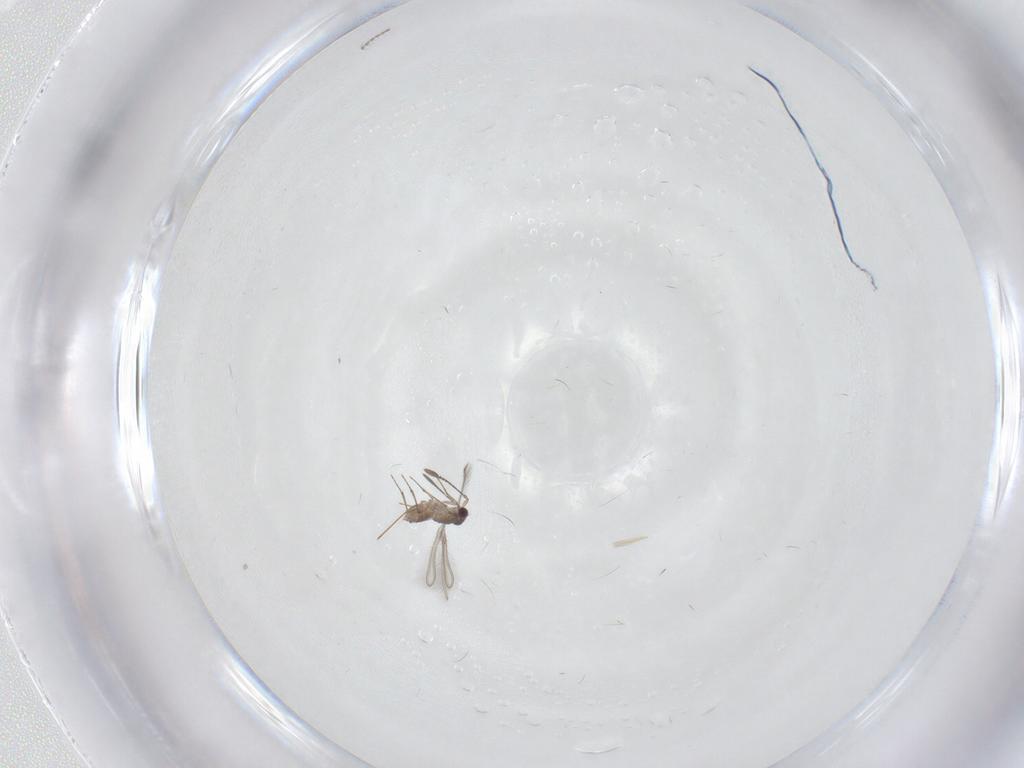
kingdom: Animalia
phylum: Arthropoda
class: Insecta
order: Hymenoptera
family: Mymaridae
